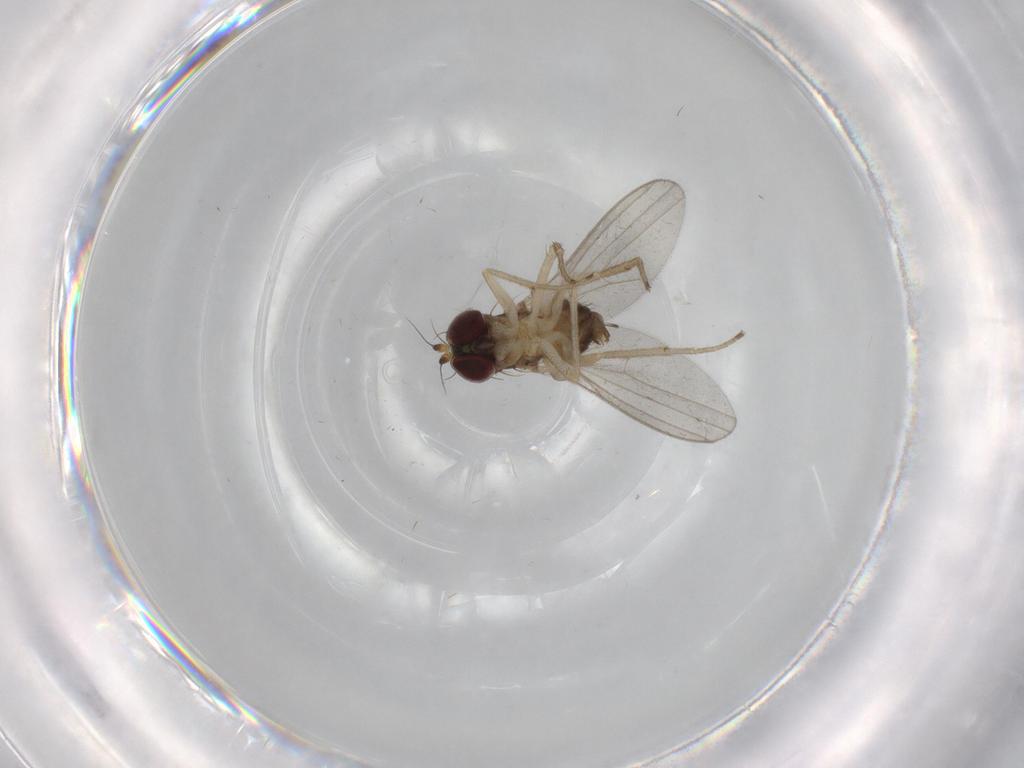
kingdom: Animalia
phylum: Arthropoda
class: Insecta
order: Diptera
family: Dolichopodidae
